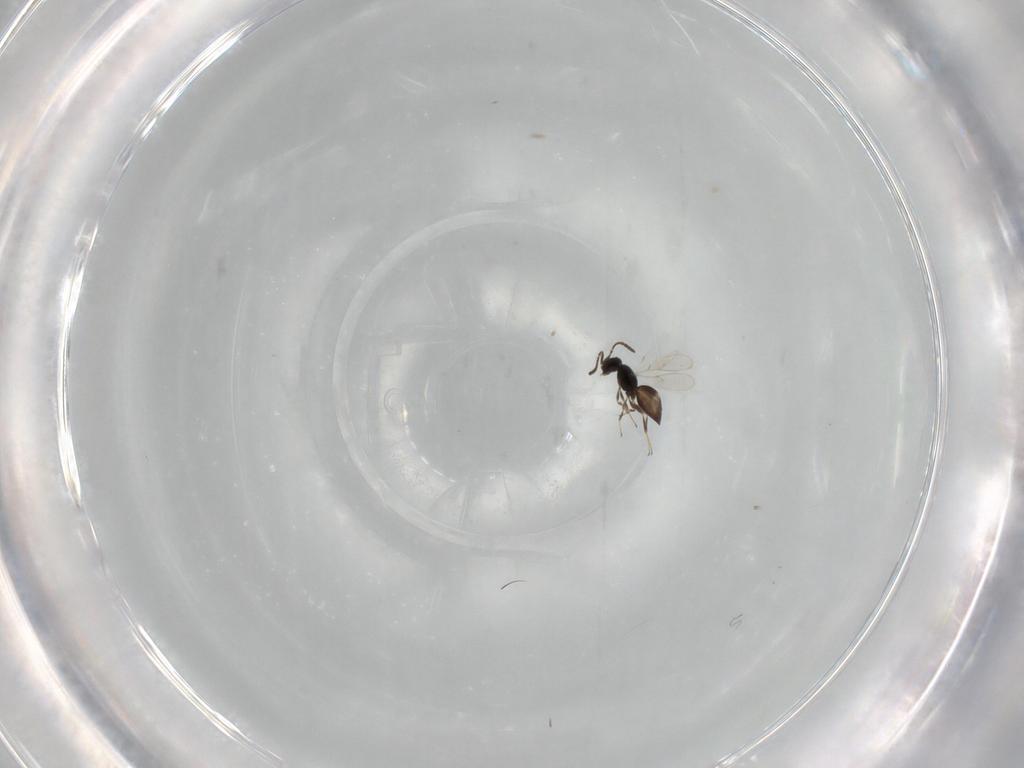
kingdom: Animalia
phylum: Arthropoda
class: Insecta
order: Hymenoptera
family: Scelionidae
